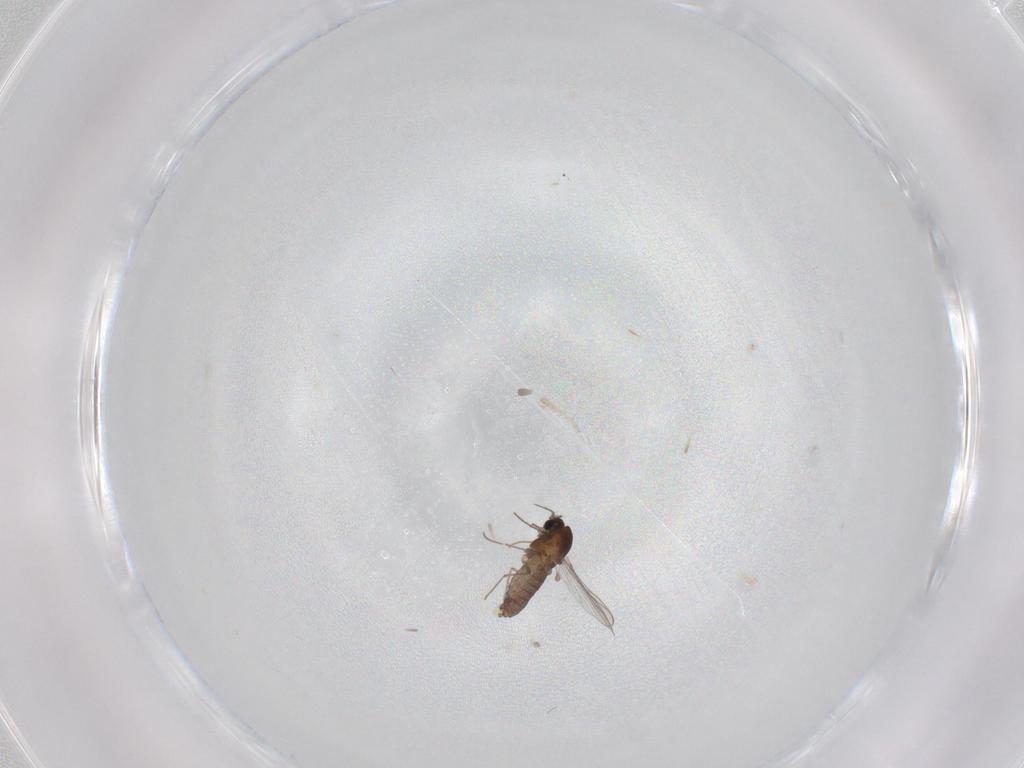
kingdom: Animalia
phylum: Arthropoda
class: Insecta
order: Diptera
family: Chironomidae
